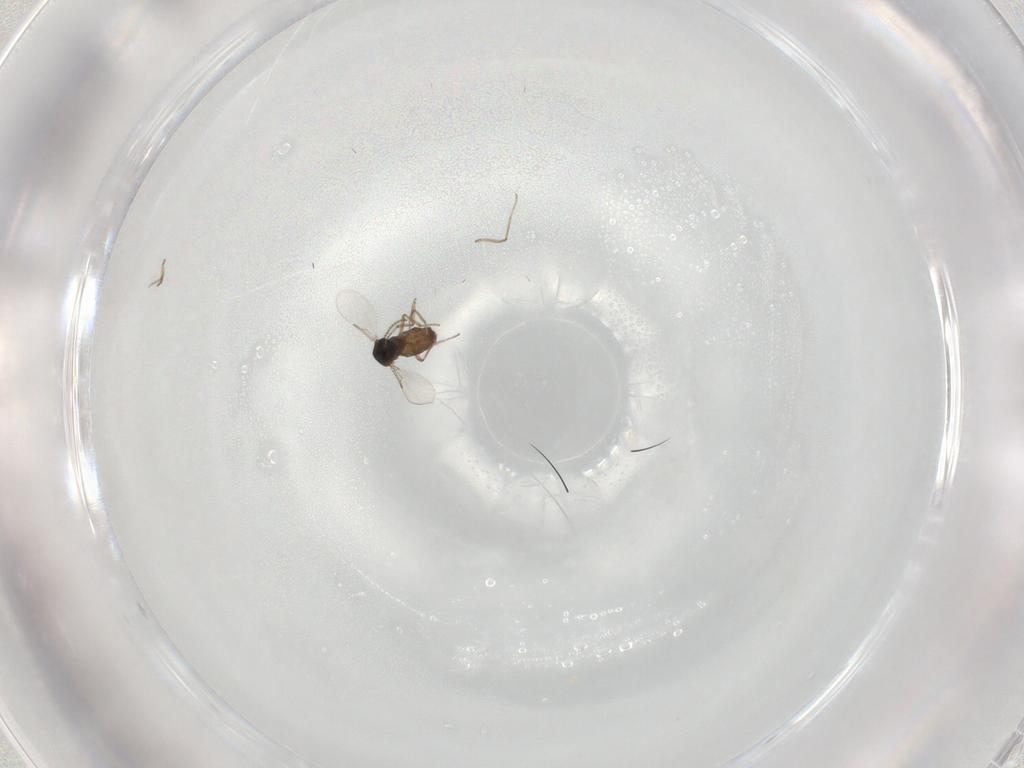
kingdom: Animalia
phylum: Arthropoda
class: Insecta
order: Diptera
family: Ceratopogonidae
